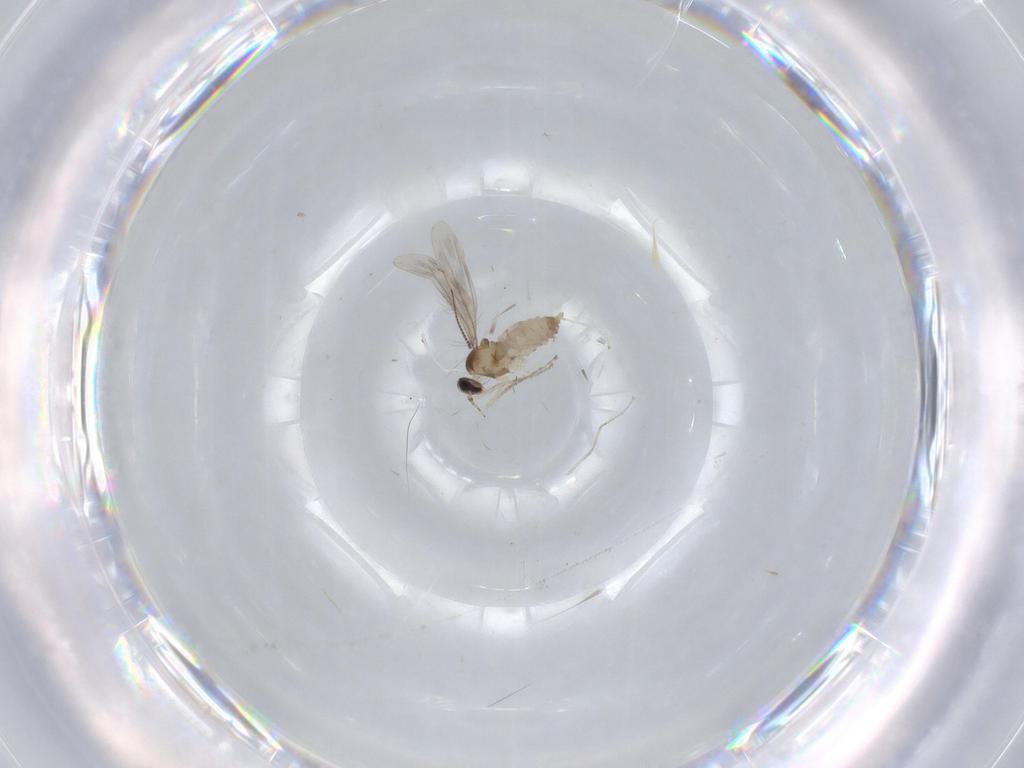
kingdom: Animalia
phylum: Arthropoda
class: Insecta
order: Diptera
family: Cecidomyiidae
